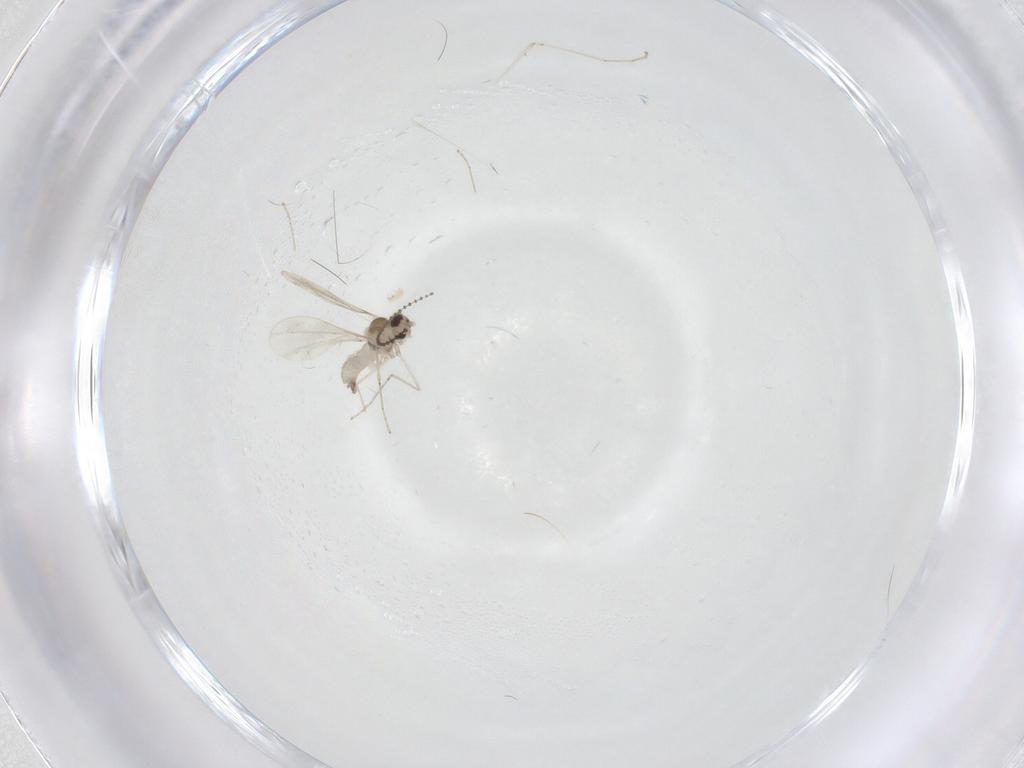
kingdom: Animalia
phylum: Arthropoda
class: Insecta
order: Diptera
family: Cecidomyiidae
